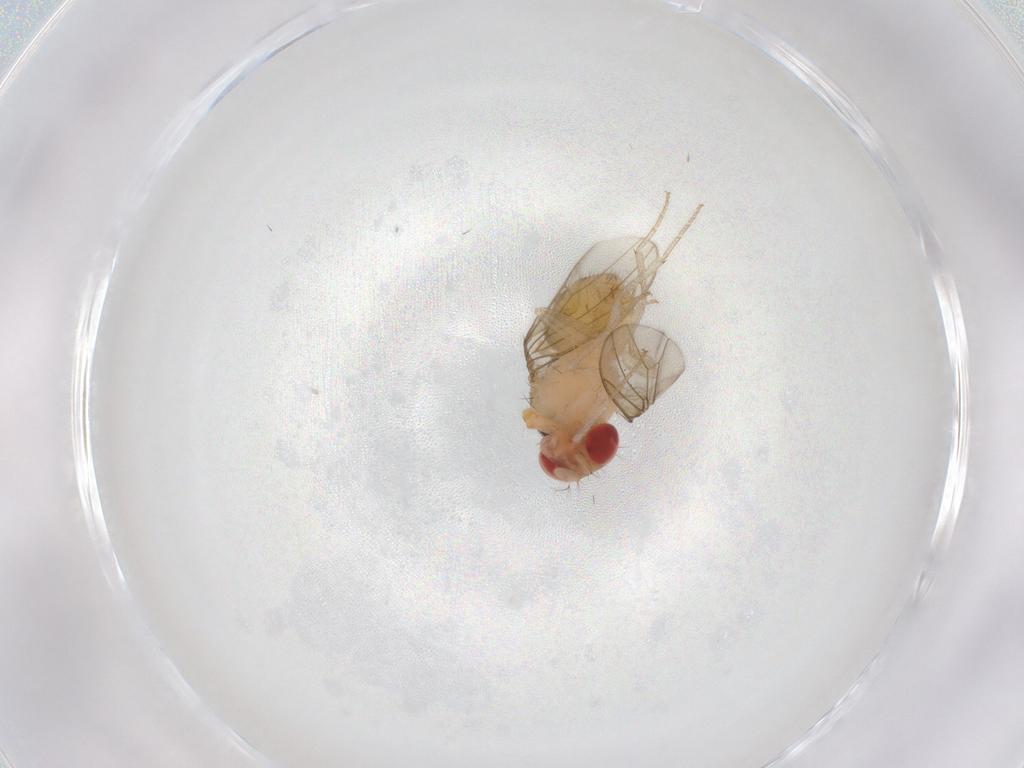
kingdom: Animalia
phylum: Arthropoda
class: Insecta
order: Diptera
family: Drosophilidae
